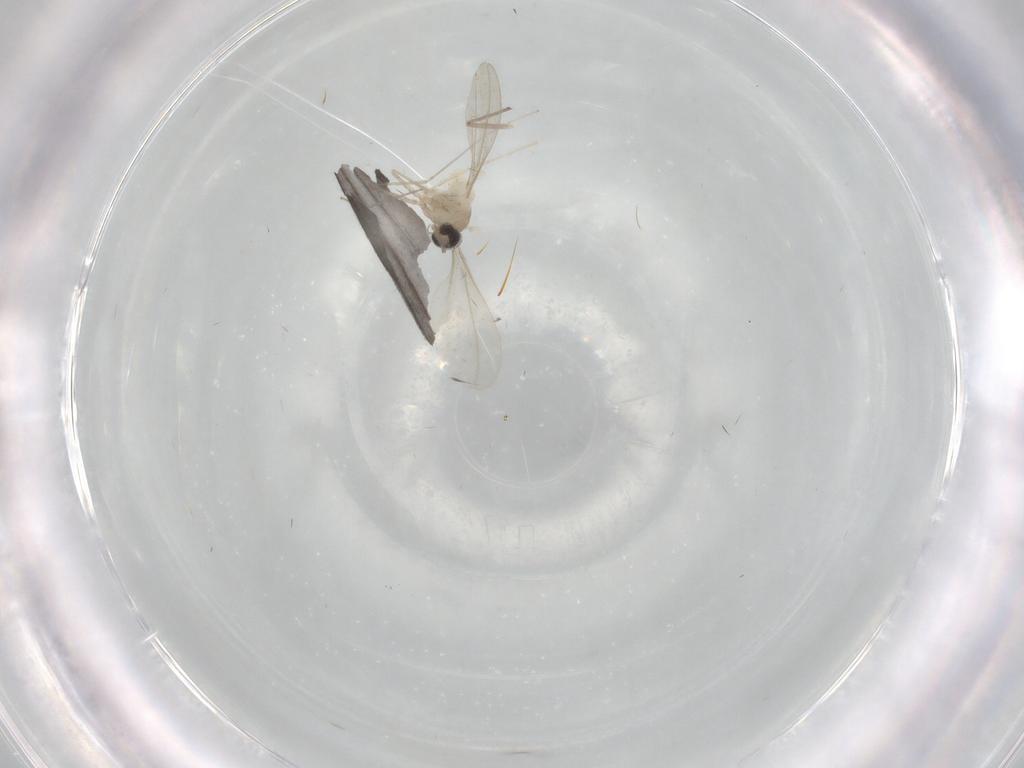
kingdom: Animalia
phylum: Arthropoda
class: Insecta
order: Diptera
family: Cecidomyiidae
